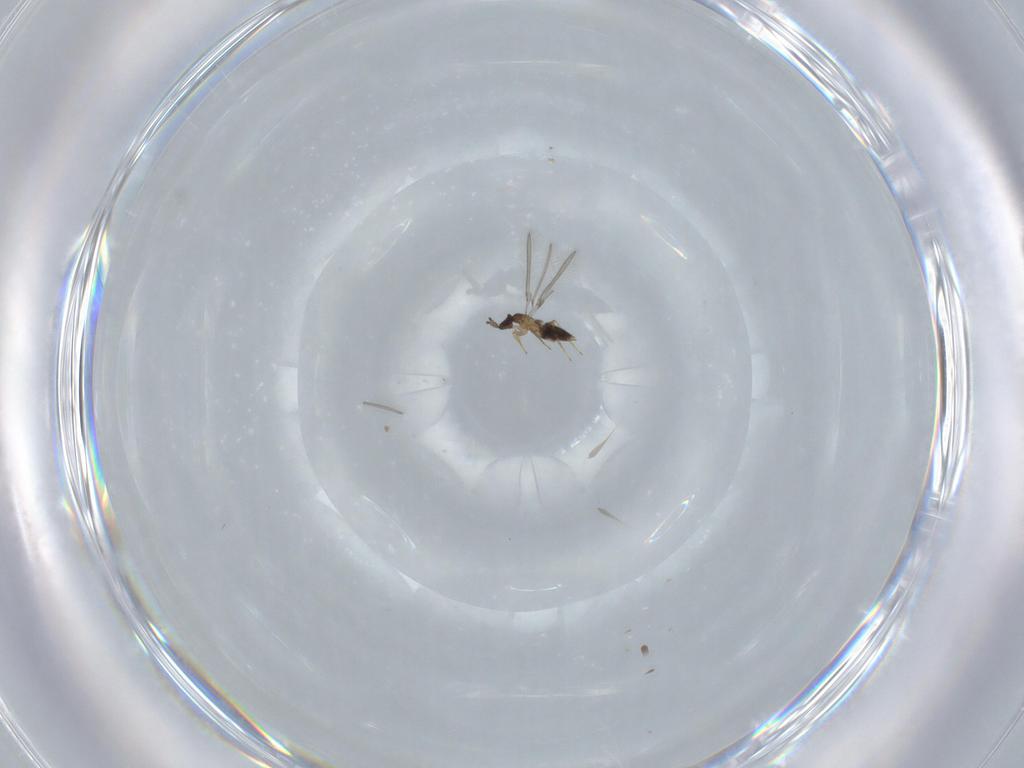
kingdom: Animalia
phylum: Arthropoda
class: Insecta
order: Hymenoptera
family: Mymaridae
